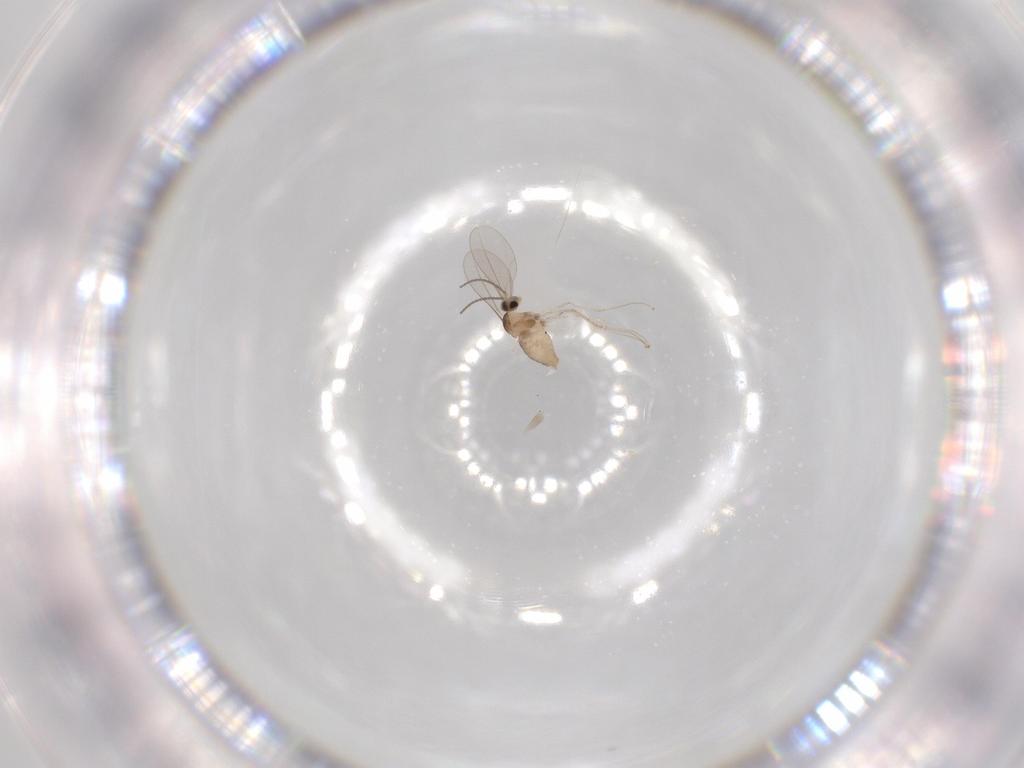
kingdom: Animalia
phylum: Arthropoda
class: Insecta
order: Diptera
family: Cecidomyiidae
